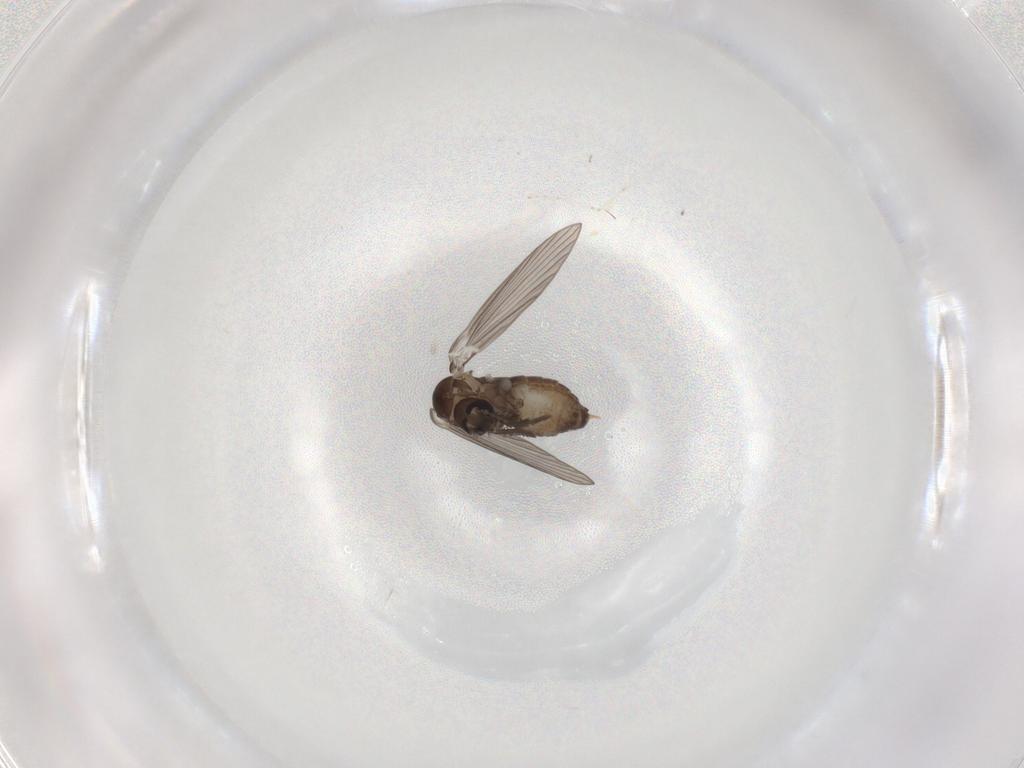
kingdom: Animalia
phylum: Arthropoda
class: Insecta
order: Diptera
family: Psychodidae
